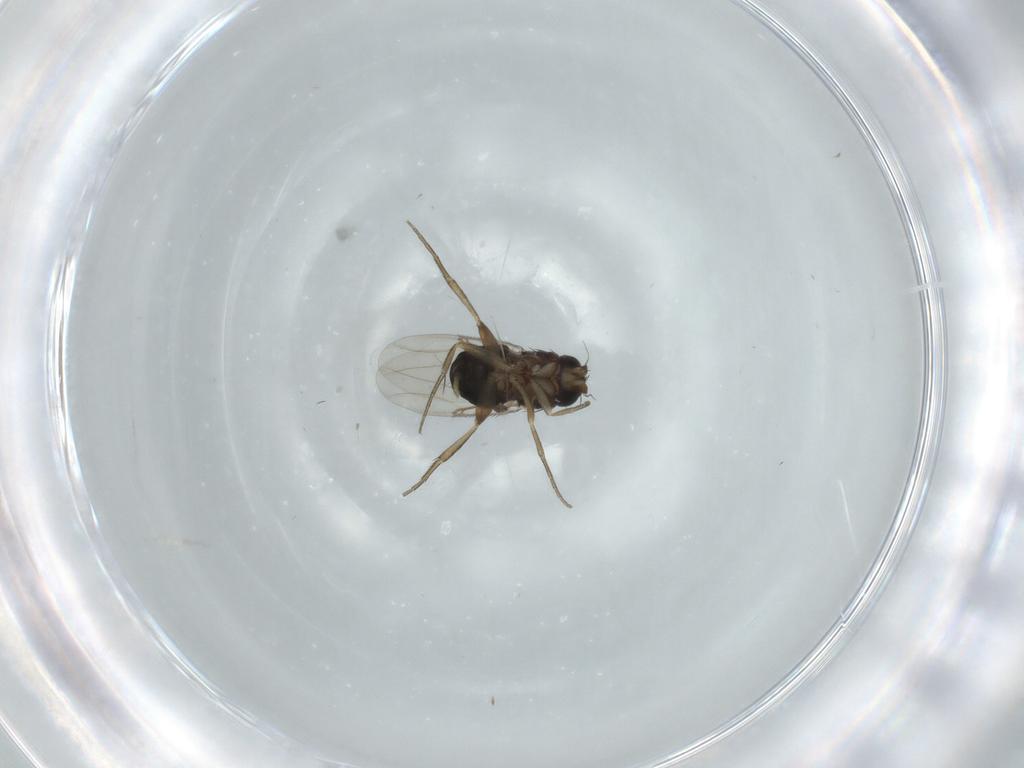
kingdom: Animalia
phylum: Arthropoda
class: Insecta
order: Diptera
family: Phoridae
